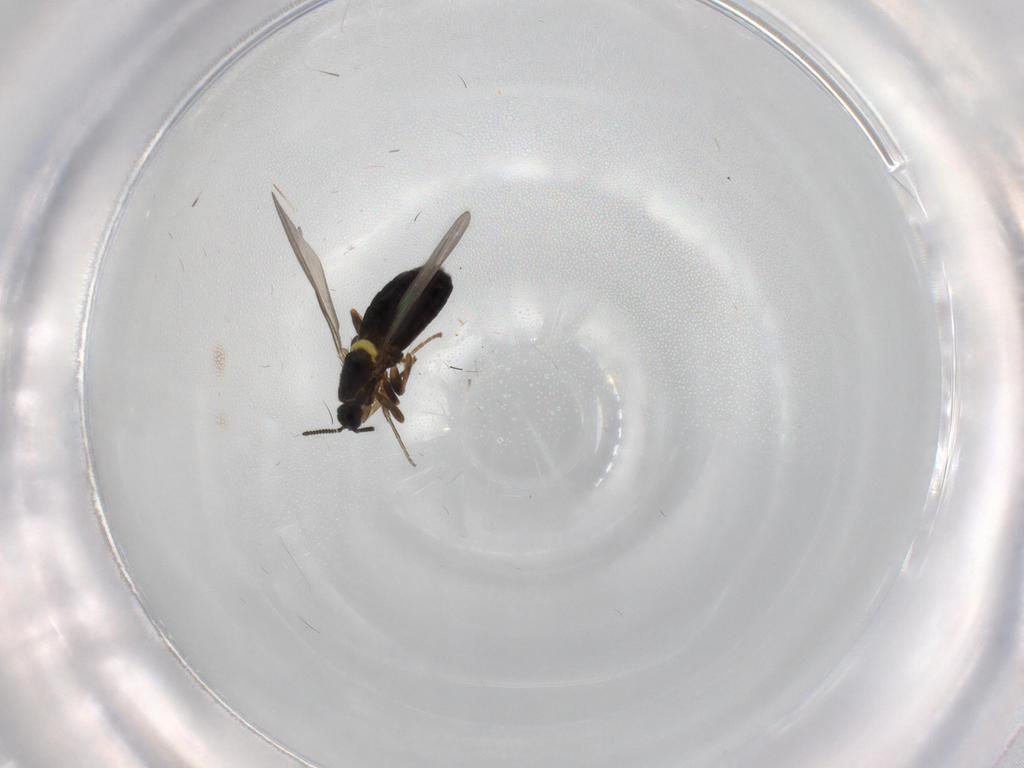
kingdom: Animalia
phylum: Arthropoda
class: Insecta
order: Diptera
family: Scatopsidae
